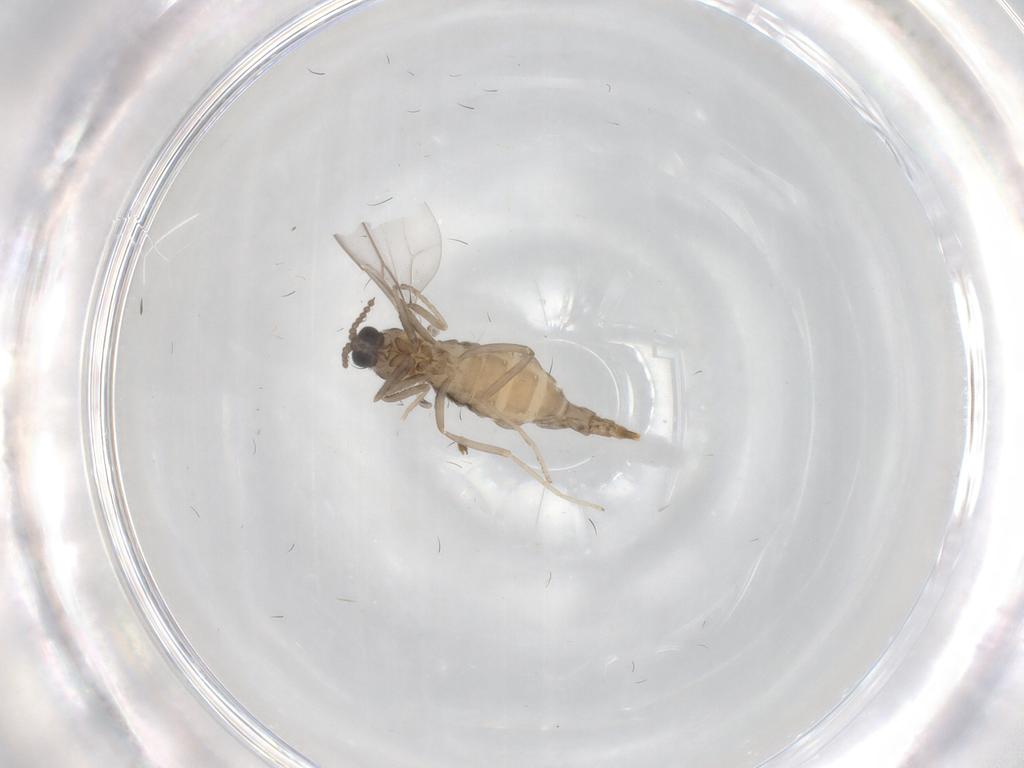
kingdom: Animalia
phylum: Arthropoda
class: Insecta
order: Diptera
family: Cecidomyiidae
